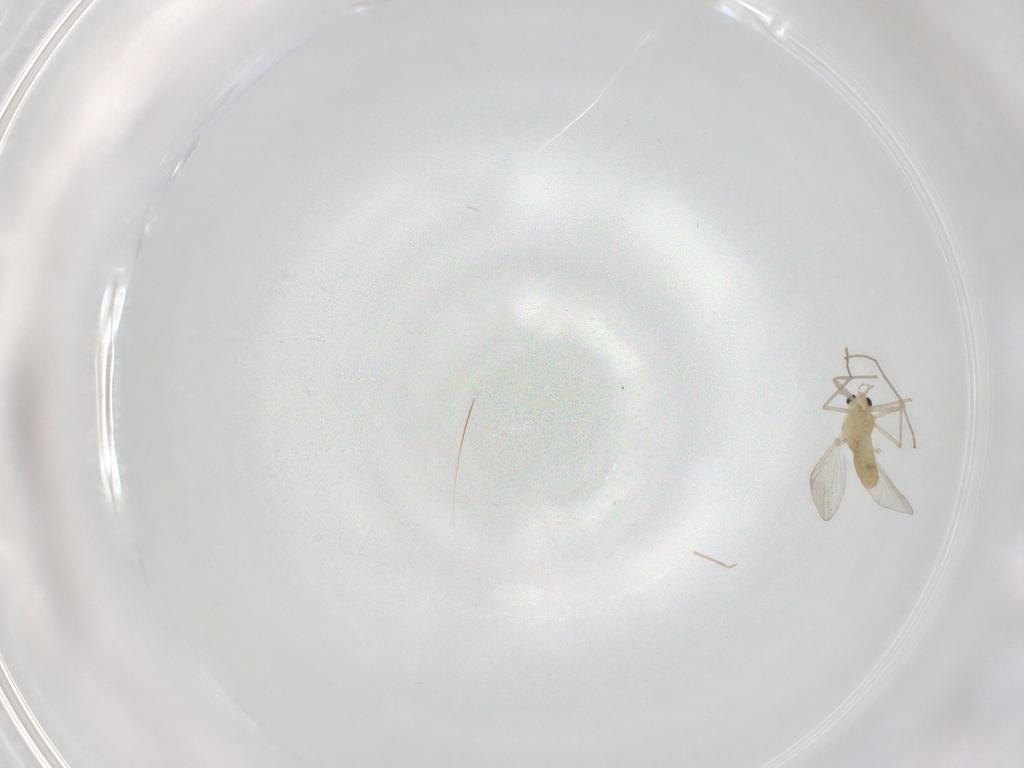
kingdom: Animalia
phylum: Arthropoda
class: Insecta
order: Diptera
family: Chironomidae
